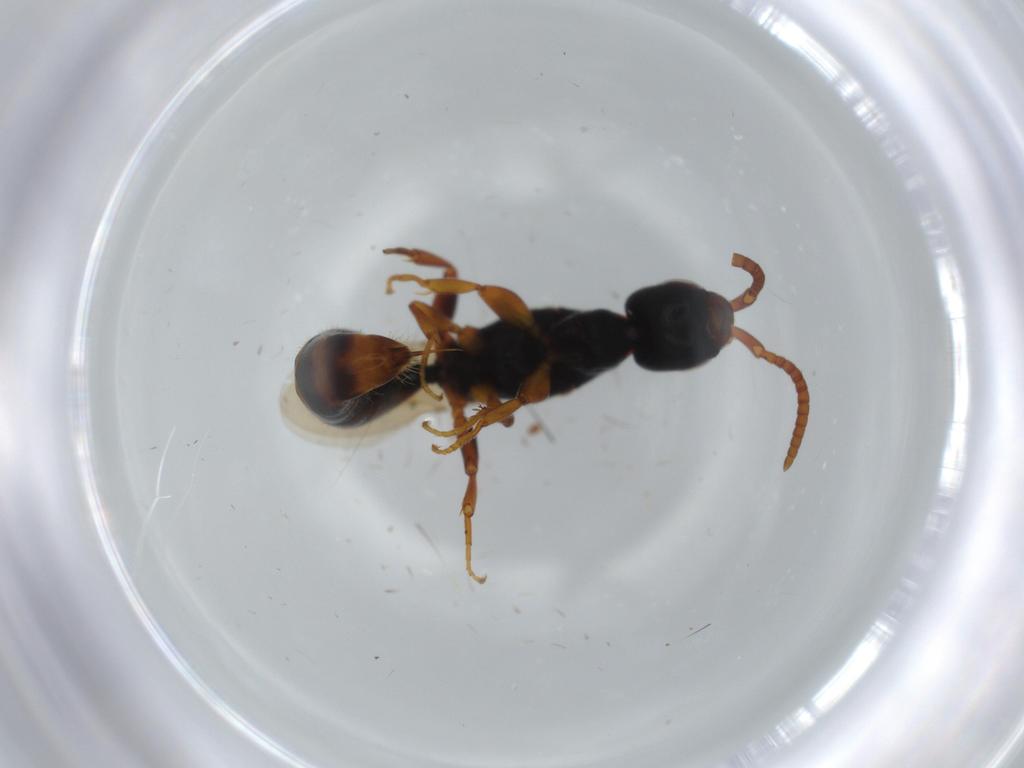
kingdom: Animalia
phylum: Arthropoda
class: Insecta
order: Hymenoptera
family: Bethylidae
